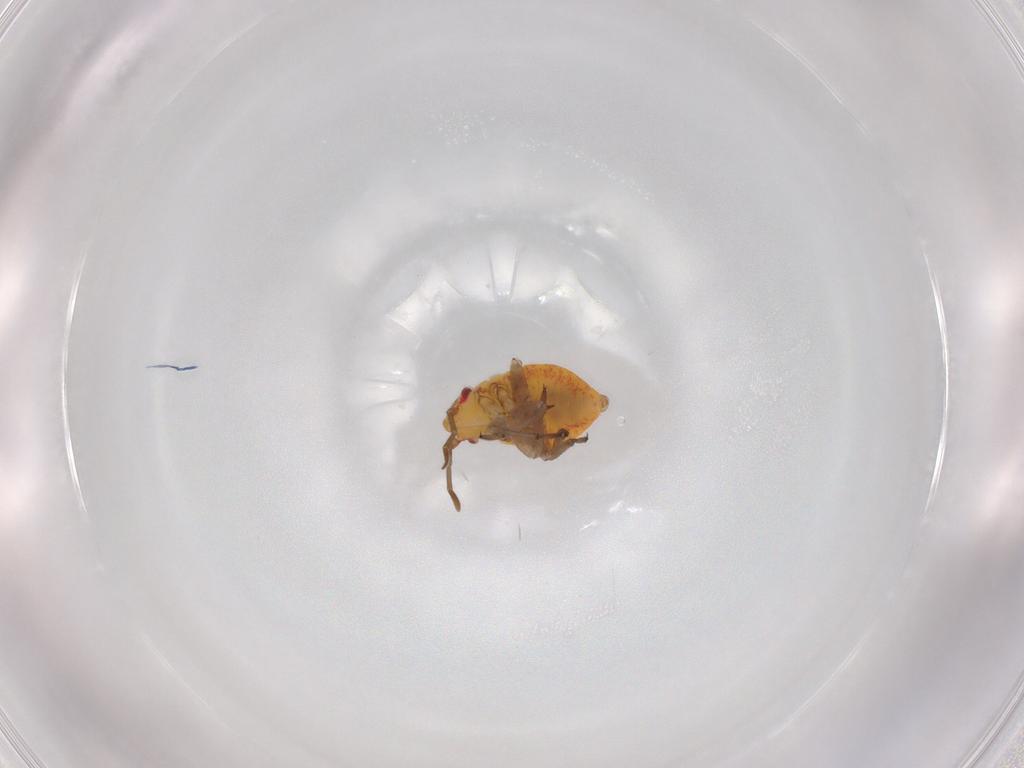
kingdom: Animalia
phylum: Arthropoda
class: Insecta
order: Hemiptera
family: Miridae
